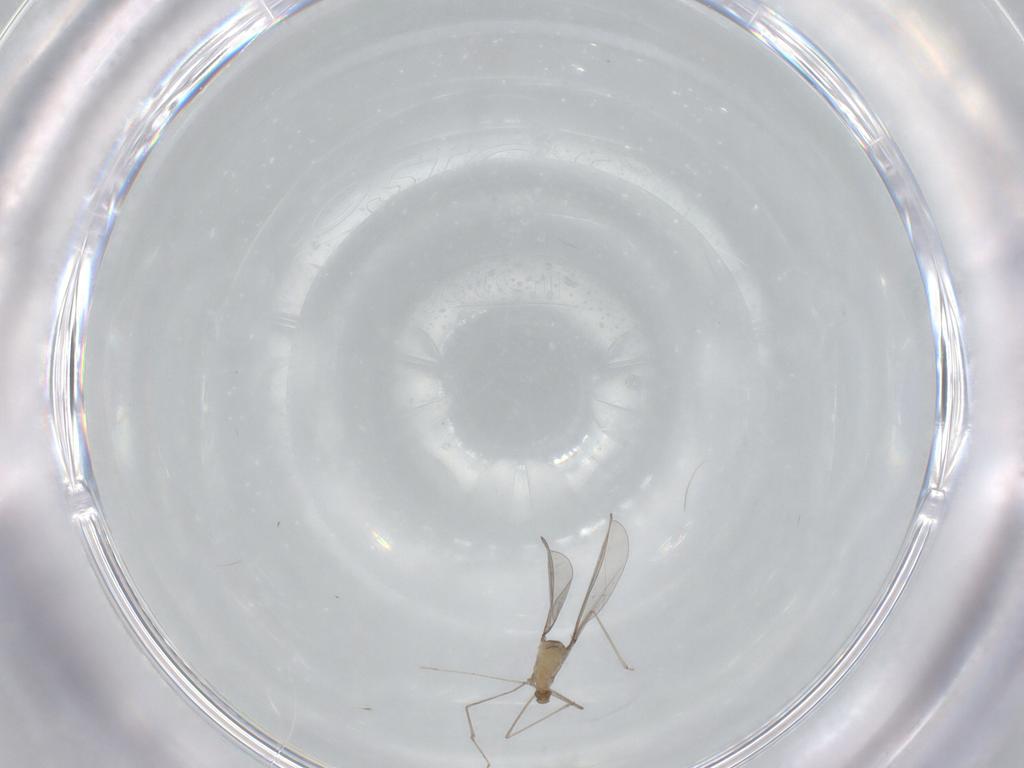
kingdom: Animalia
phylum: Arthropoda
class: Insecta
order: Diptera
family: Cecidomyiidae
